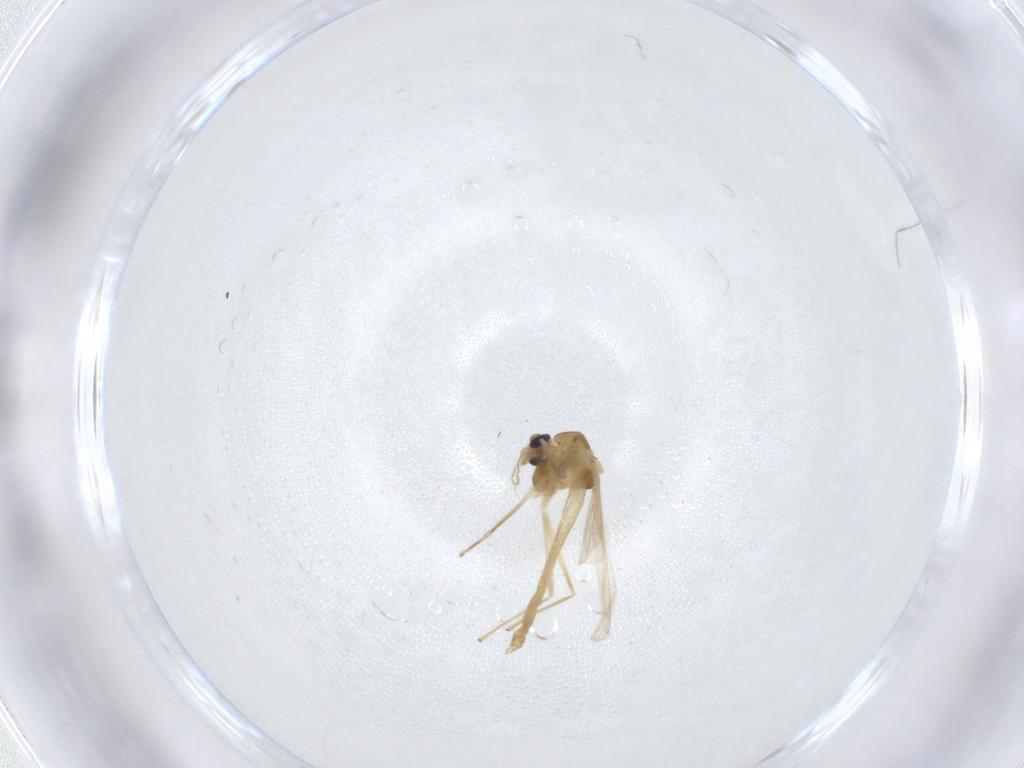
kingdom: Animalia
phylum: Arthropoda
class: Insecta
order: Diptera
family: Chironomidae
